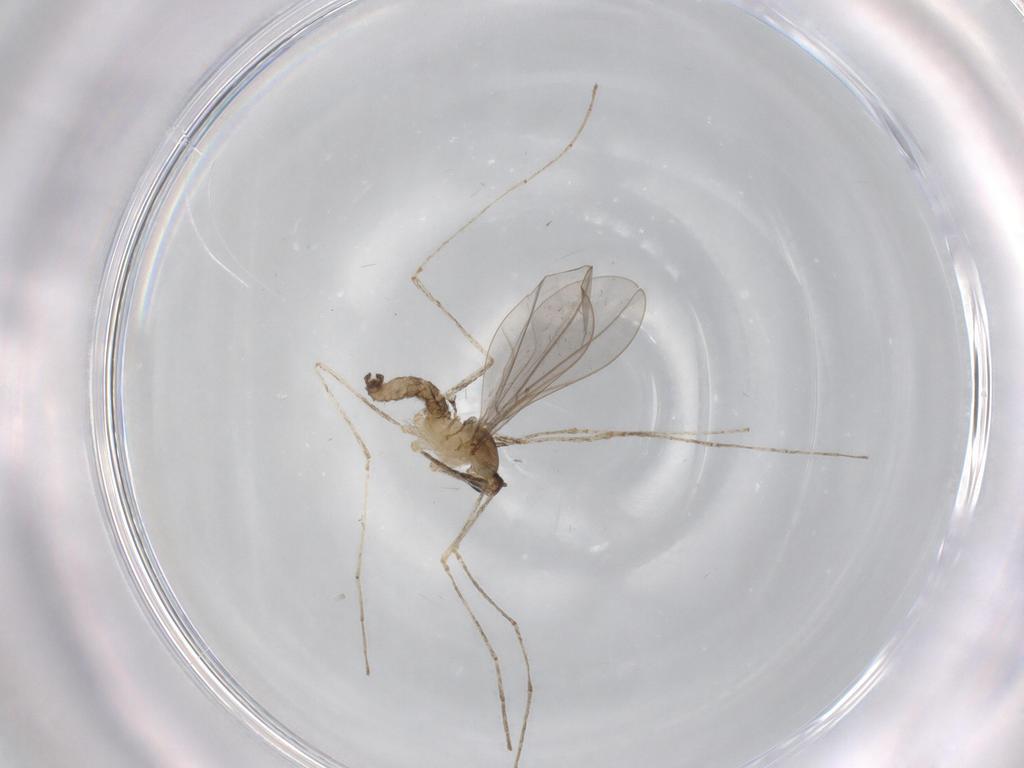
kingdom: Animalia
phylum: Arthropoda
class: Insecta
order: Diptera
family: Cecidomyiidae
